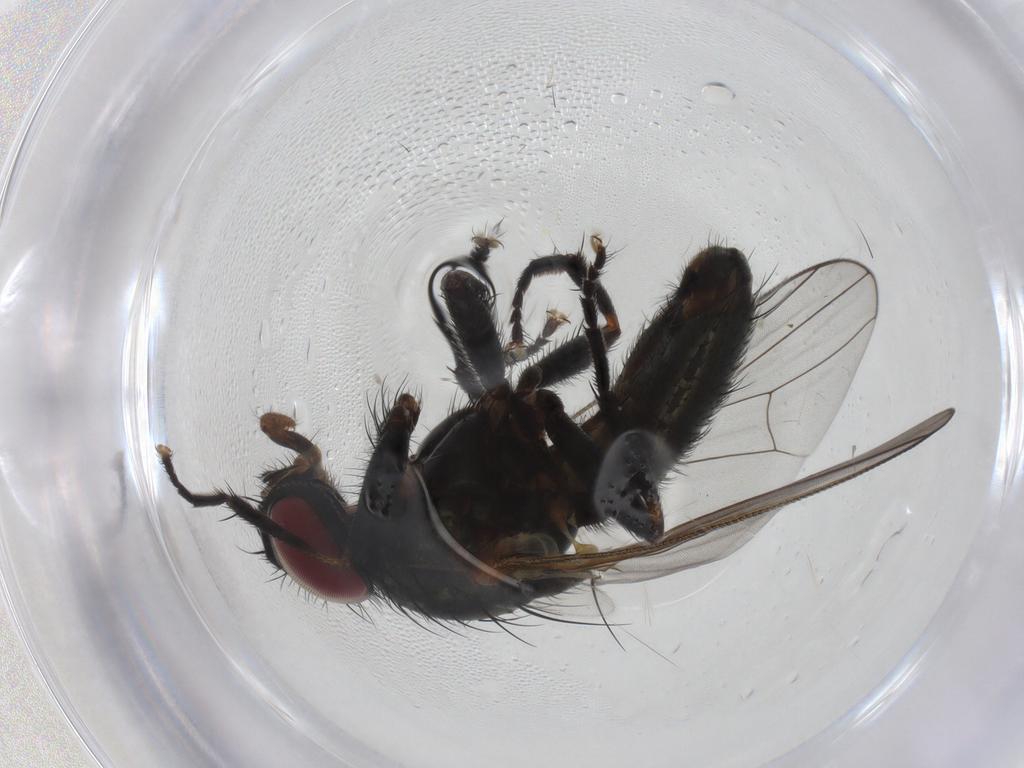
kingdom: Animalia
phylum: Arthropoda
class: Insecta
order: Diptera
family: Fannia
